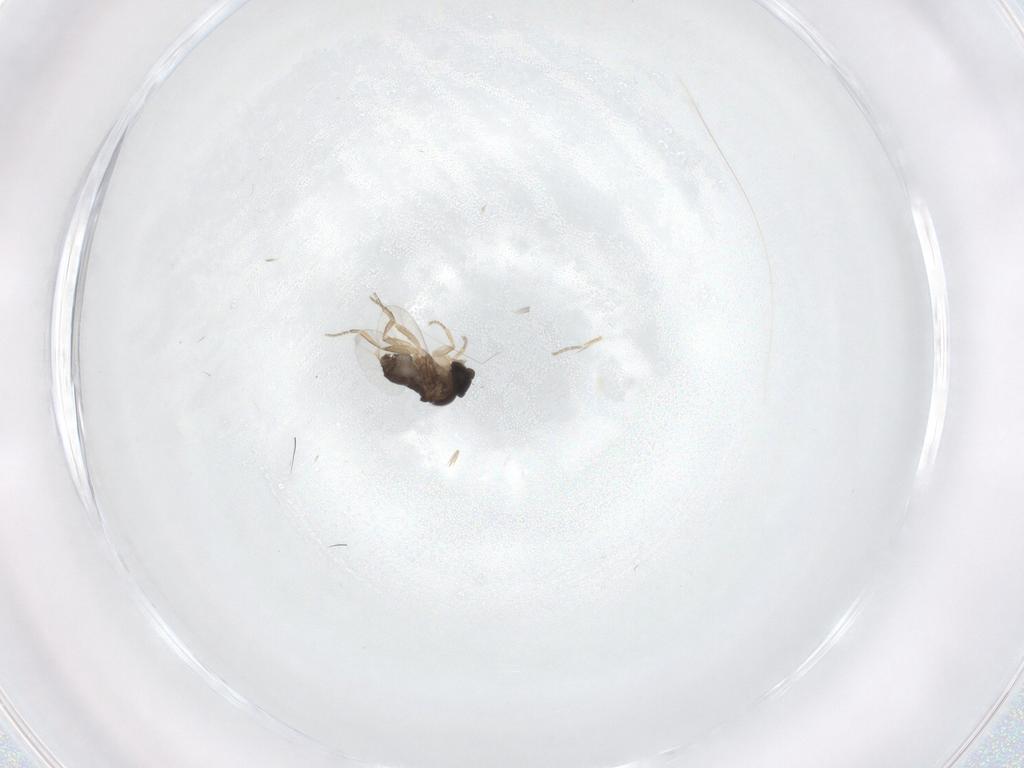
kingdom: Animalia
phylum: Arthropoda
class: Insecta
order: Diptera
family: Phoridae
